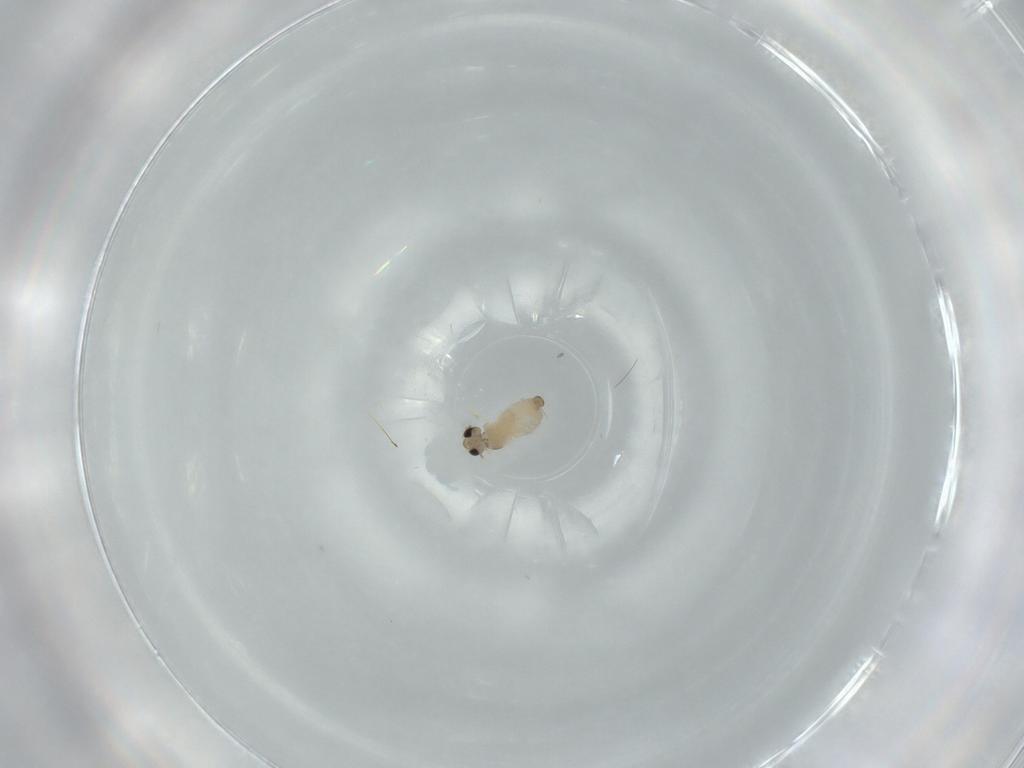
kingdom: Animalia
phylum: Arthropoda
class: Insecta
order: Diptera
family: Cecidomyiidae
